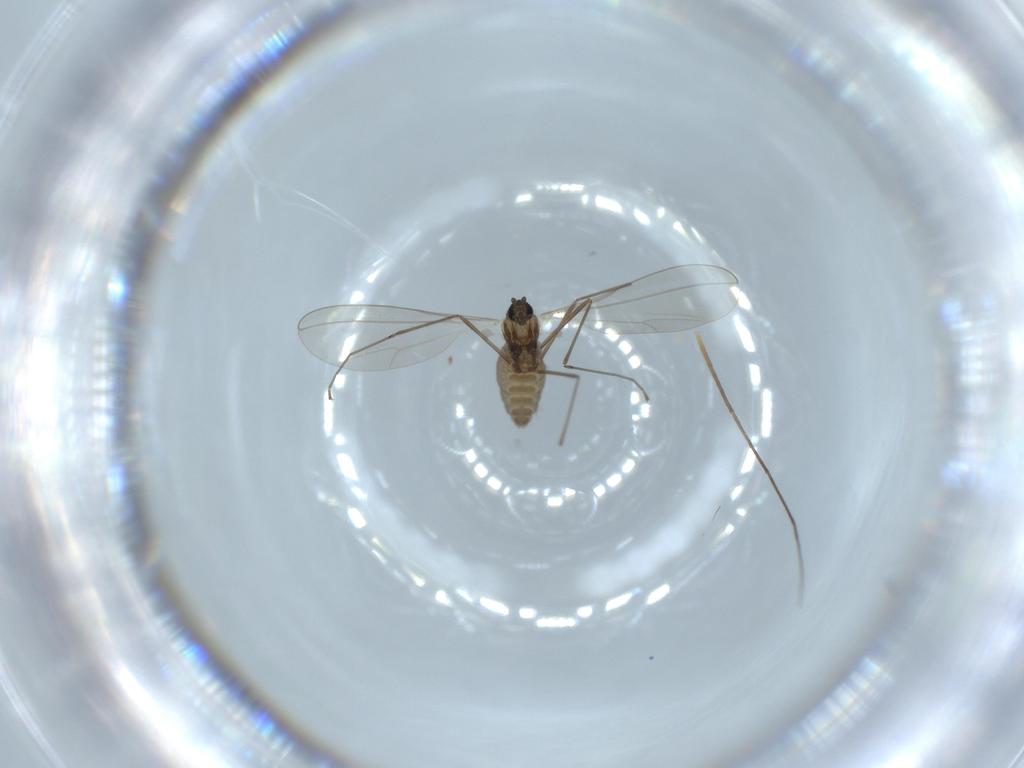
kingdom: Animalia
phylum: Arthropoda
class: Insecta
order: Diptera
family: Cecidomyiidae
